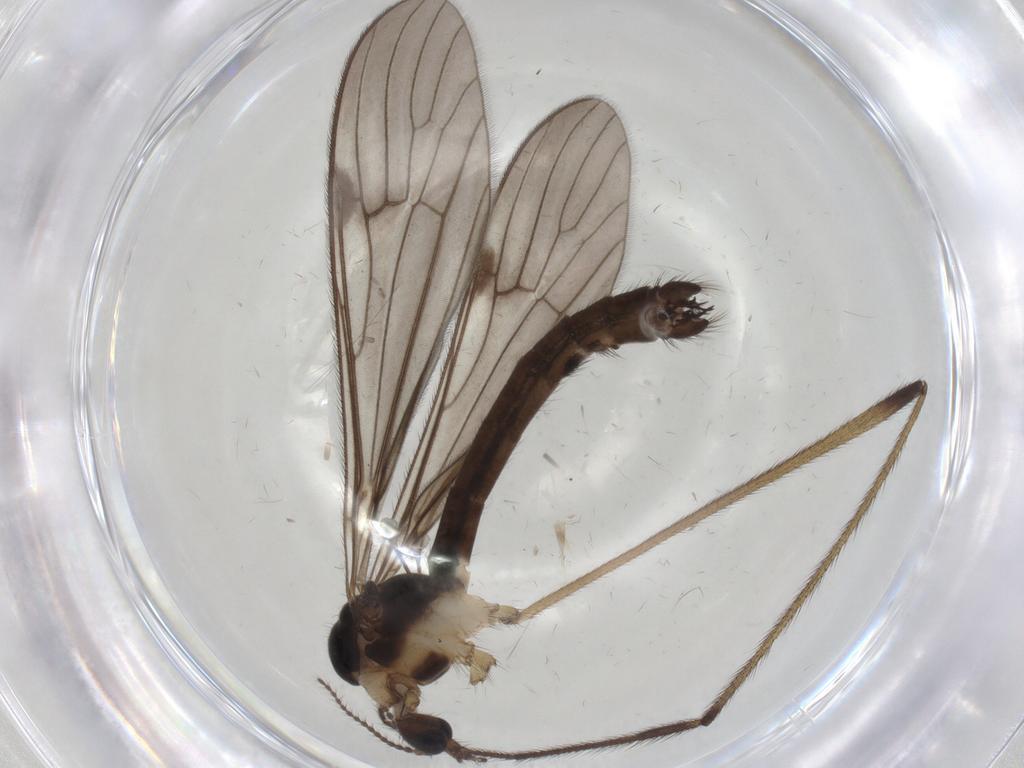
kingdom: Animalia
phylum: Arthropoda
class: Insecta
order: Diptera
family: Limoniidae
